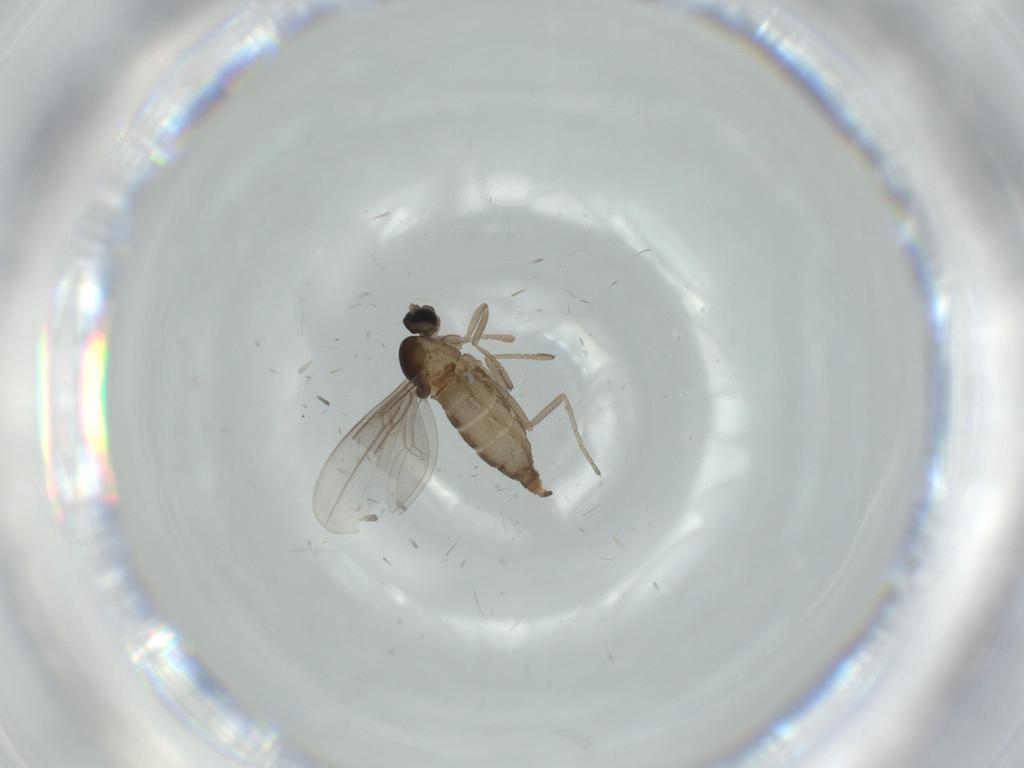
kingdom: Animalia
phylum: Arthropoda
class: Insecta
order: Diptera
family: Cecidomyiidae
